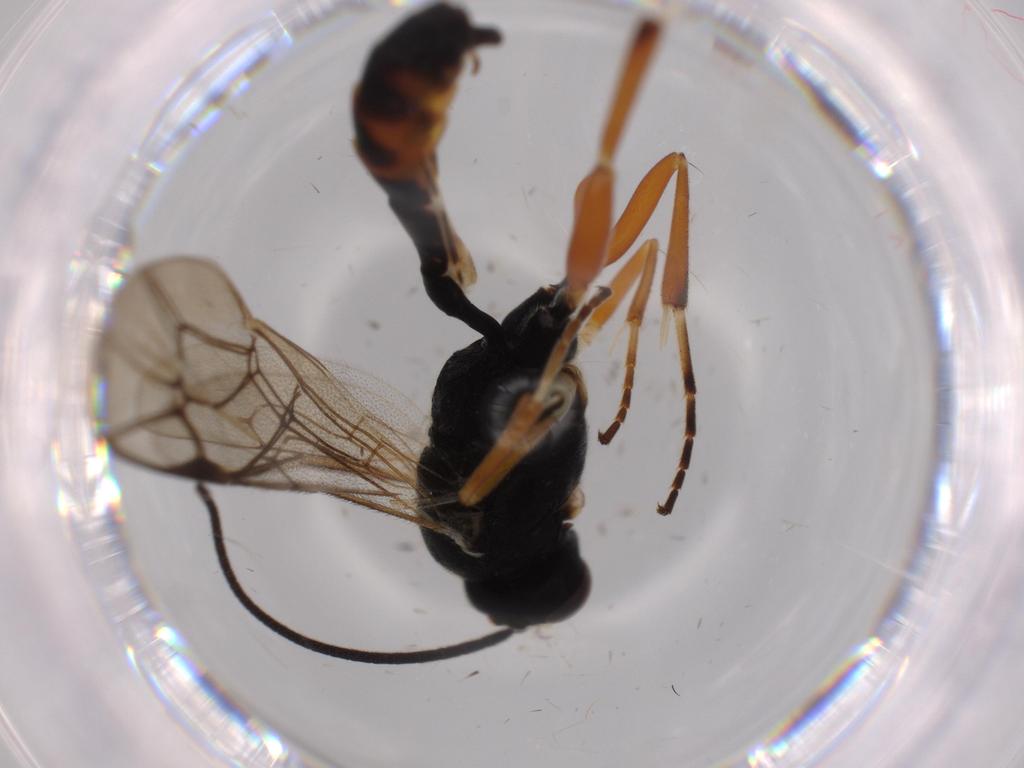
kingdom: Animalia
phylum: Arthropoda
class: Insecta
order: Hymenoptera
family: Ichneumonidae
